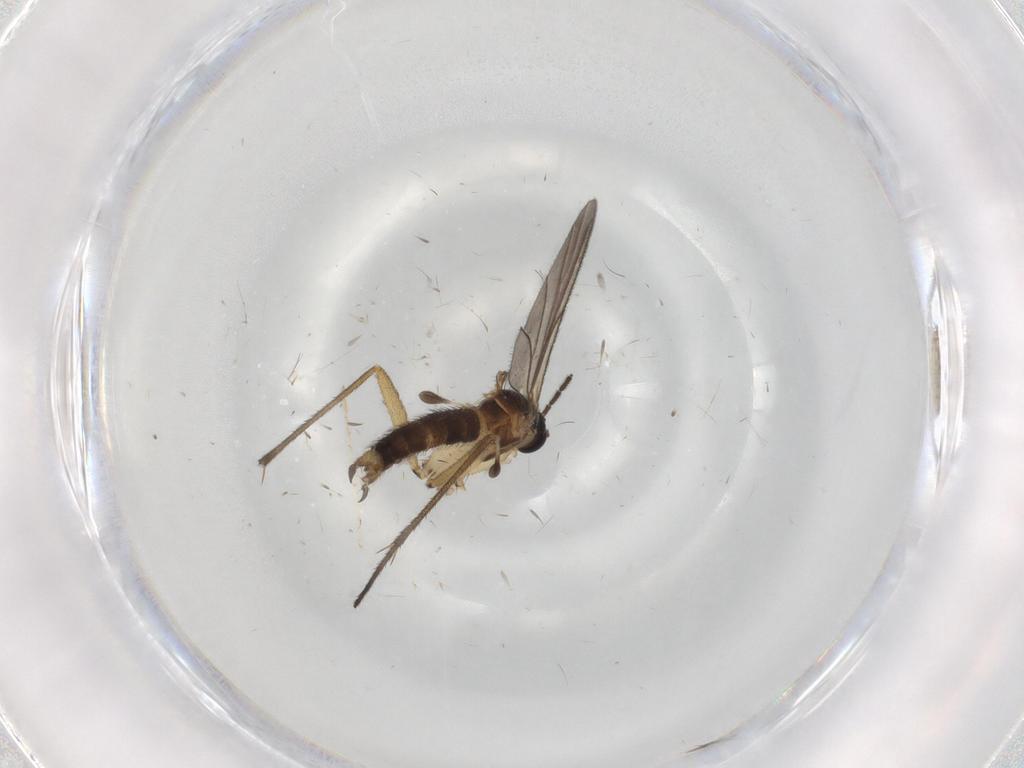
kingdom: Animalia
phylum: Arthropoda
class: Insecta
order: Diptera
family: Chironomidae
